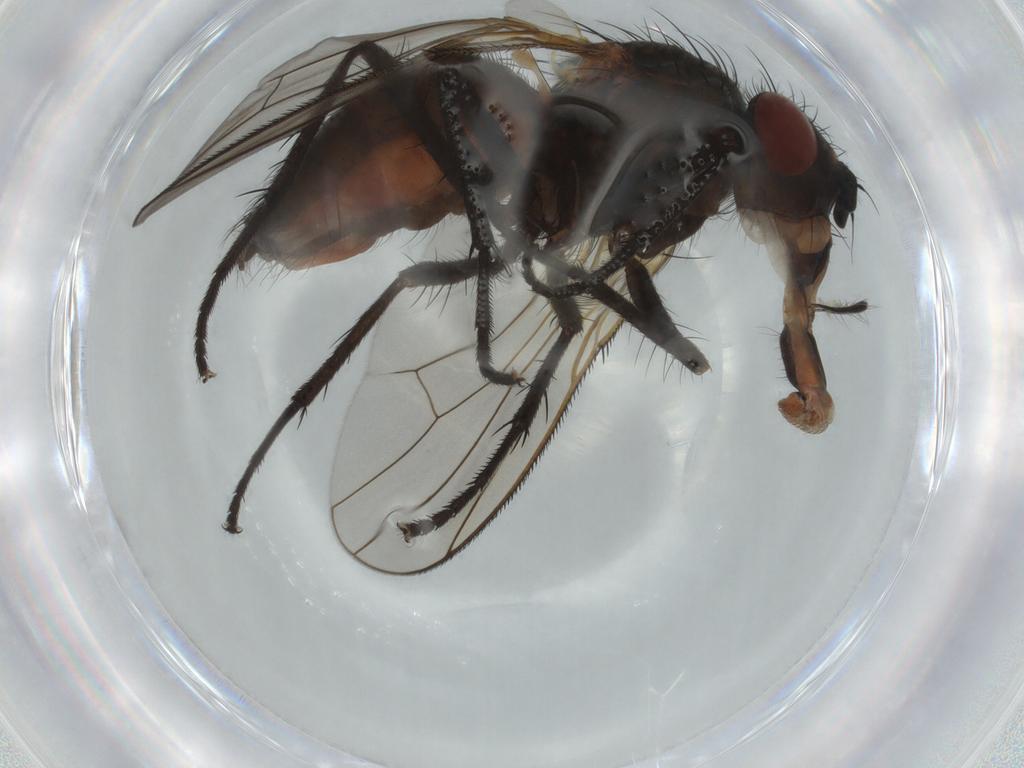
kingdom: Animalia
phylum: Arthropoda
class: Insecta
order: Diptera
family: Anthomyiidae
